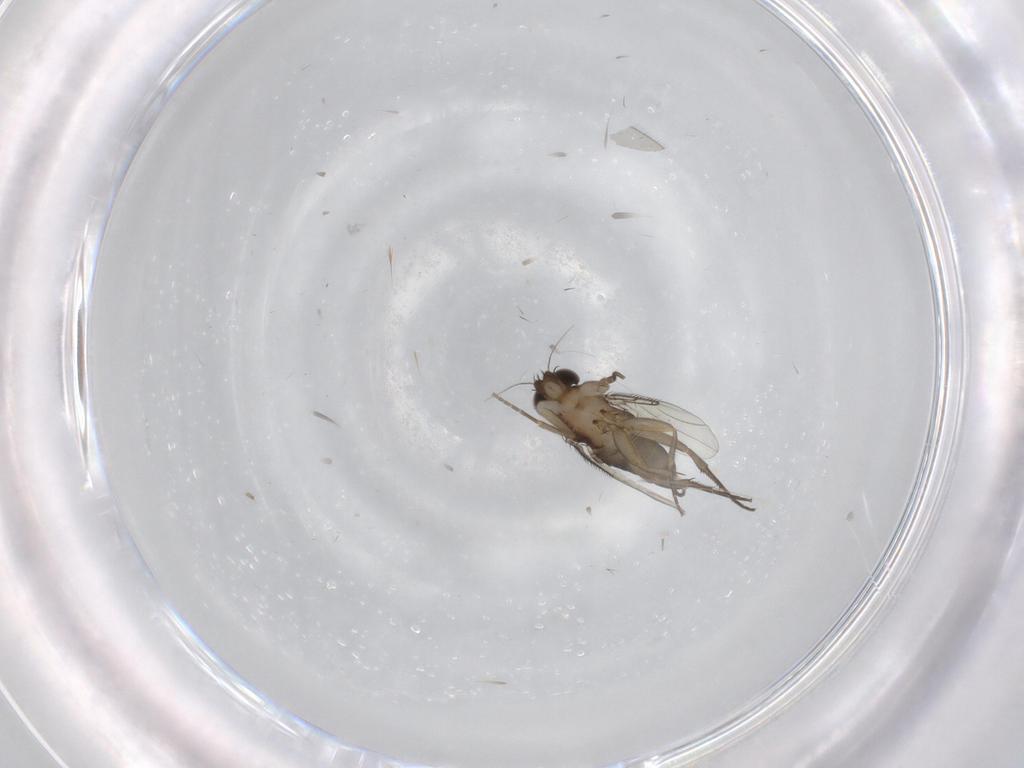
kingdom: Animalia
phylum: Arthropoda
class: Insecta
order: Diptera
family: Phoridae
